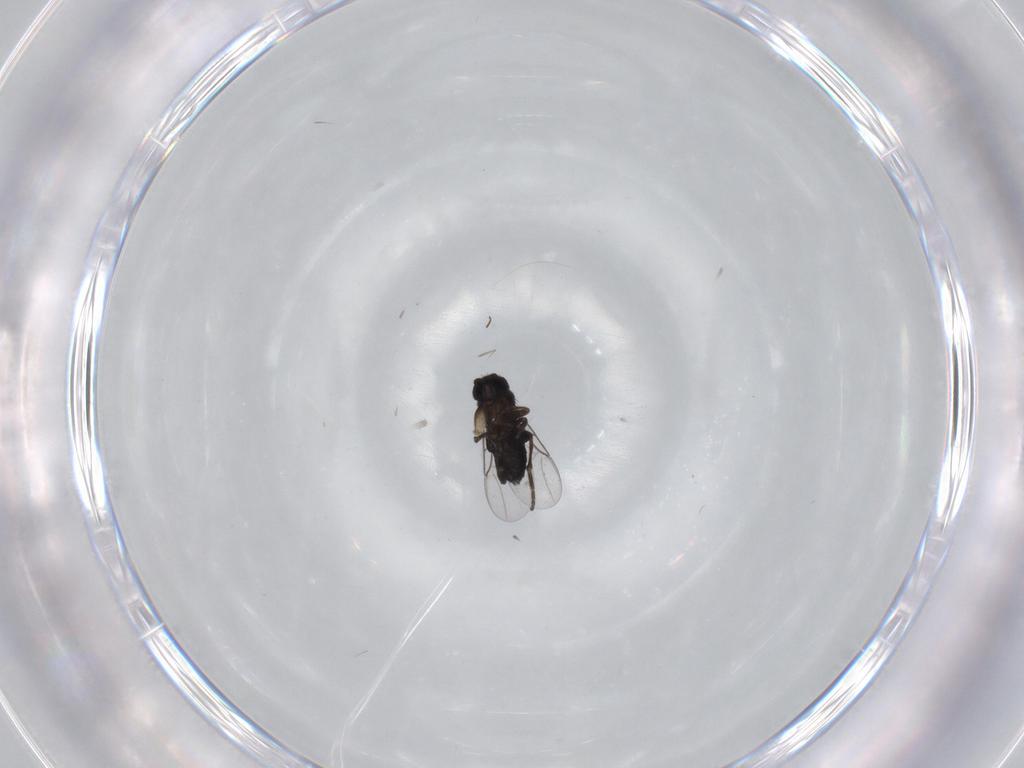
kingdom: Animalia
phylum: Arthropoda
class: Insecta
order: Diptera
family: Phoridae
